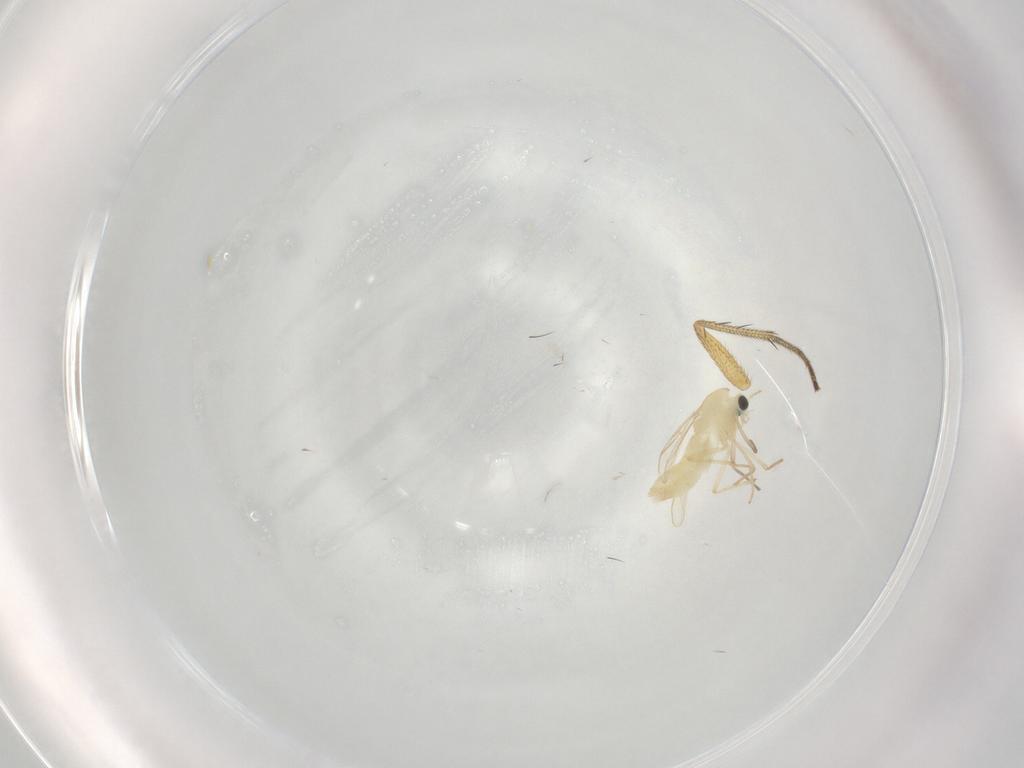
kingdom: Animalia
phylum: Arthropoda
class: Insecta
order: Diptera
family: Chironomidae
